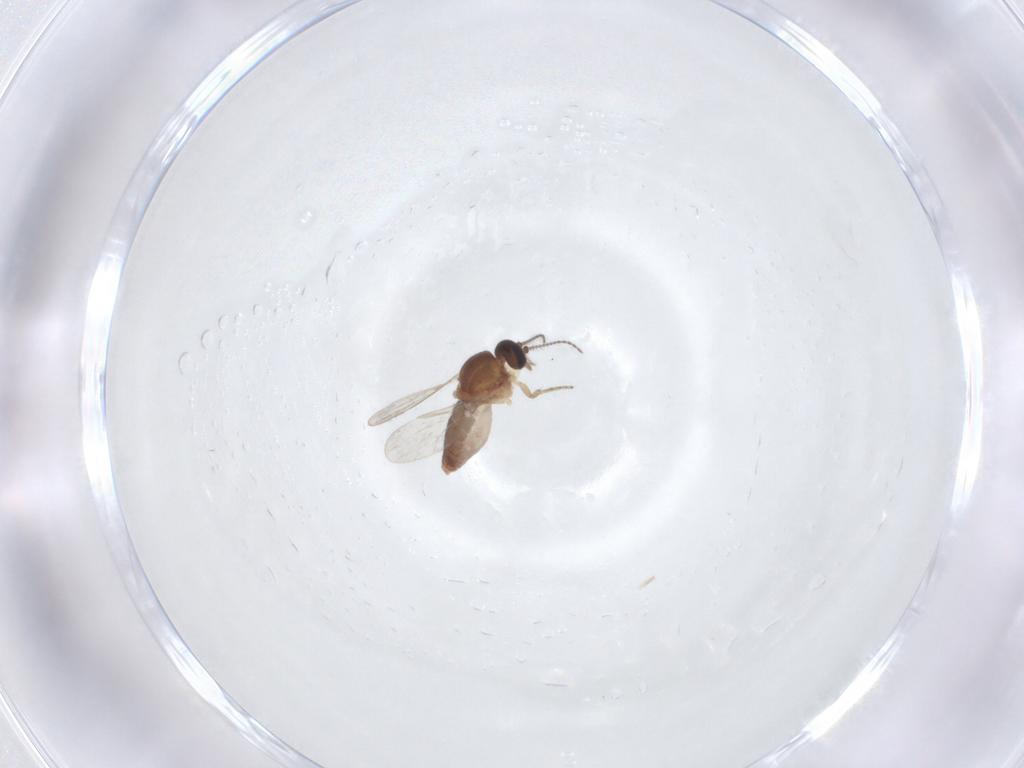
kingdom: Animalia
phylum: Arthropoda
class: Insecta
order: Diptera
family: Ceratopogonidae
